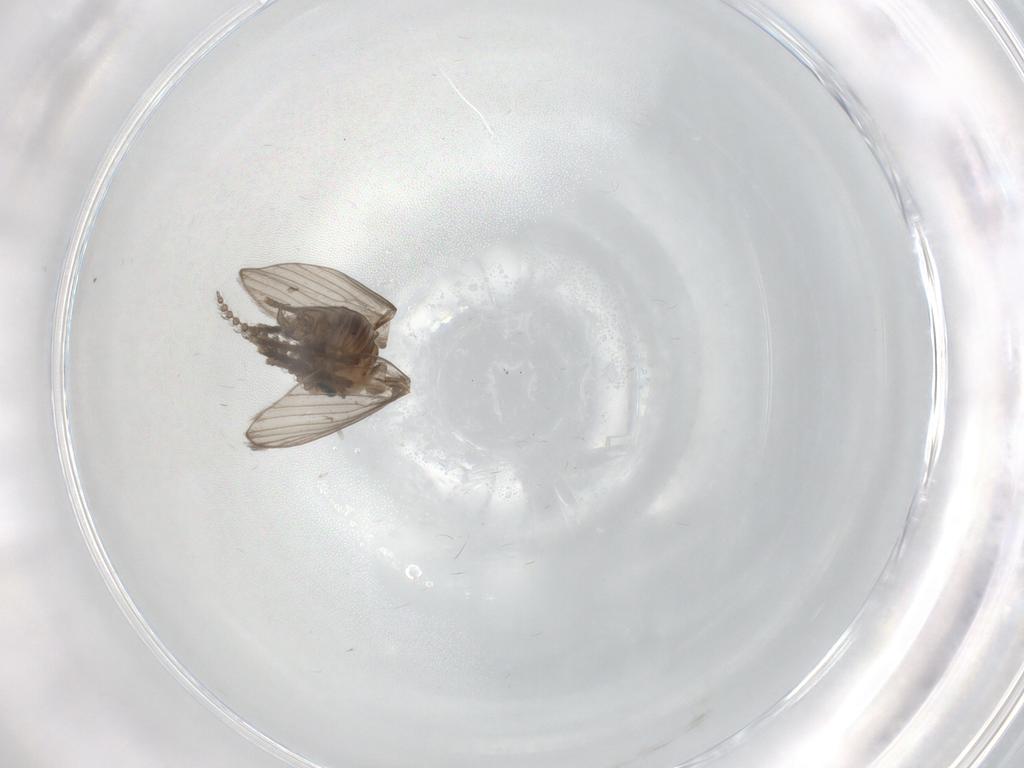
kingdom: Animalia
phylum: Arthropoda
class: Insecta
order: Diptera
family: Psychodidae
